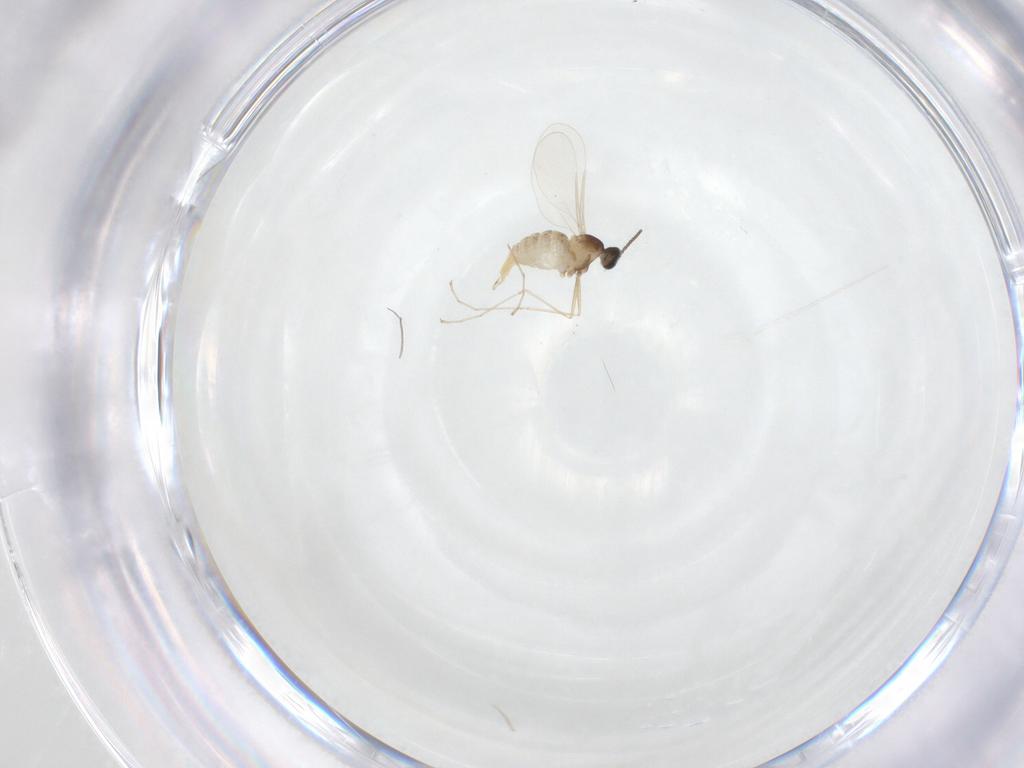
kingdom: Animalia
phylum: Arthropoda
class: Insecta
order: Diptera
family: Cecidomyiidae
